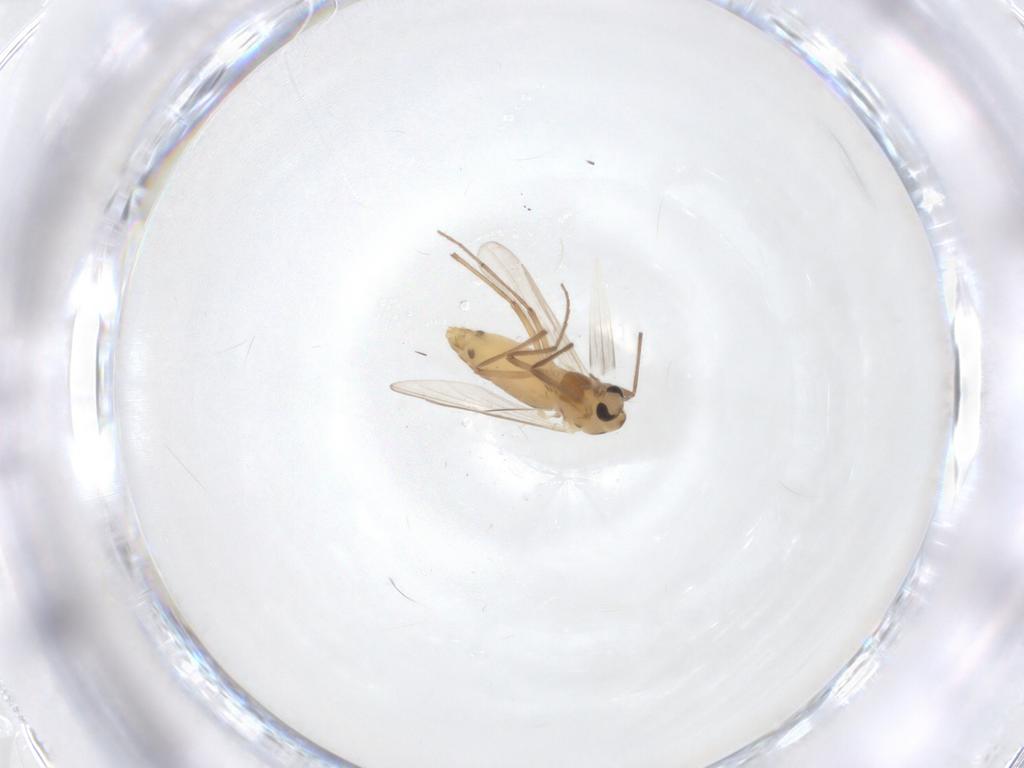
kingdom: Animalia
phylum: Arthropoda
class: Insecta
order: Diptera
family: Chironomidae
